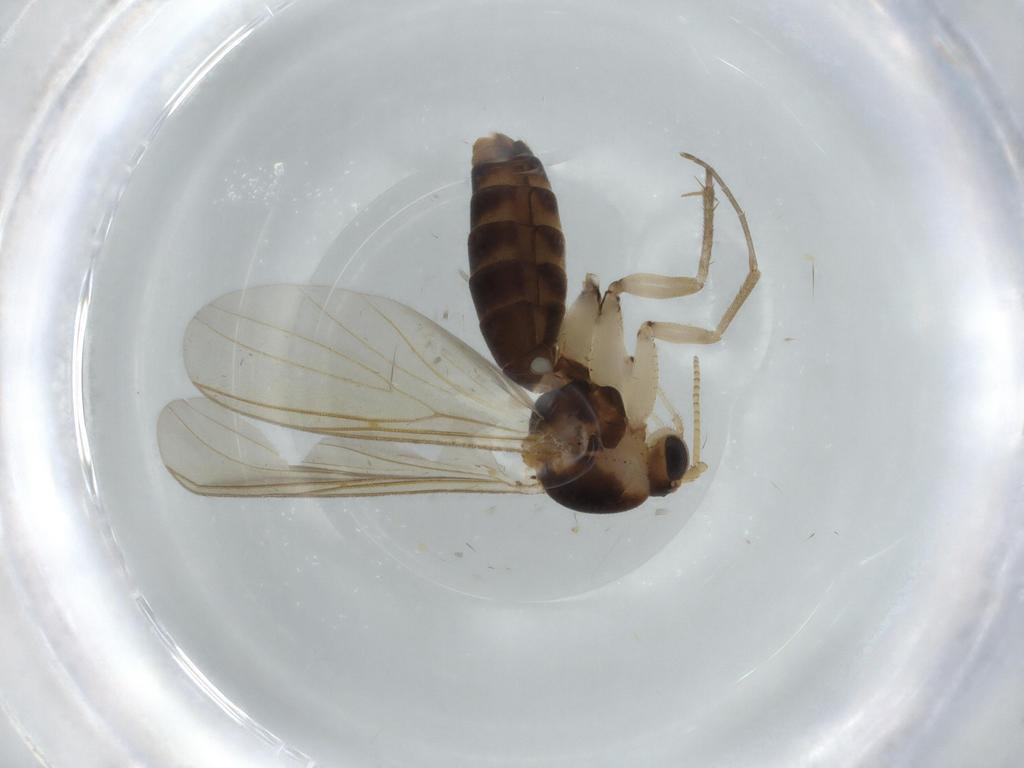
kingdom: Animalia
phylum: Arthropoda
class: Insecta
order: Diptera
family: Mycetophilidae
